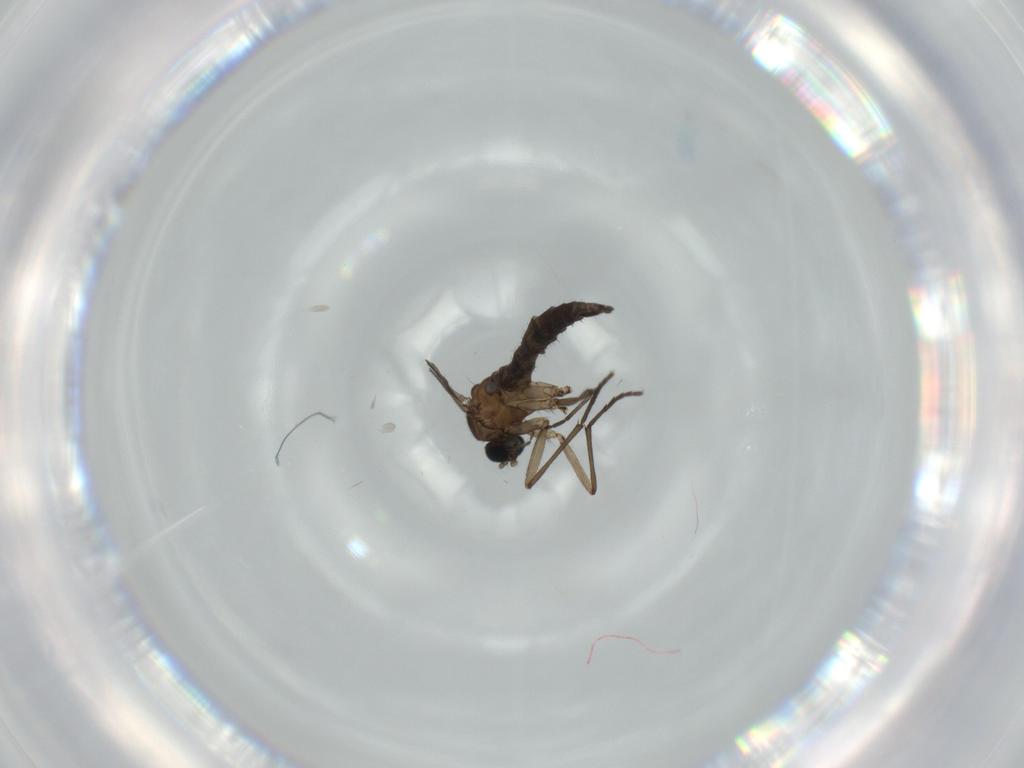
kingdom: Animalia
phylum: Arthropoda
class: Insecta
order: Diptera
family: Sciaridae
